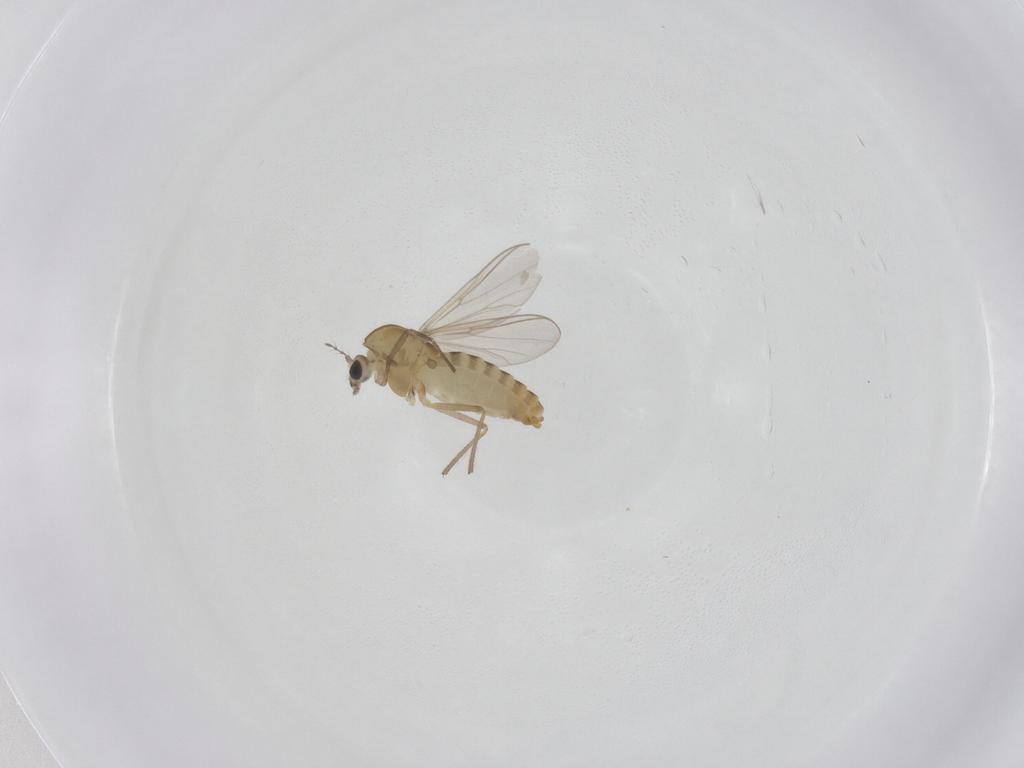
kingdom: Animalia
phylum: Arthropoda
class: Insecta
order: Diptera
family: Chironomidae
